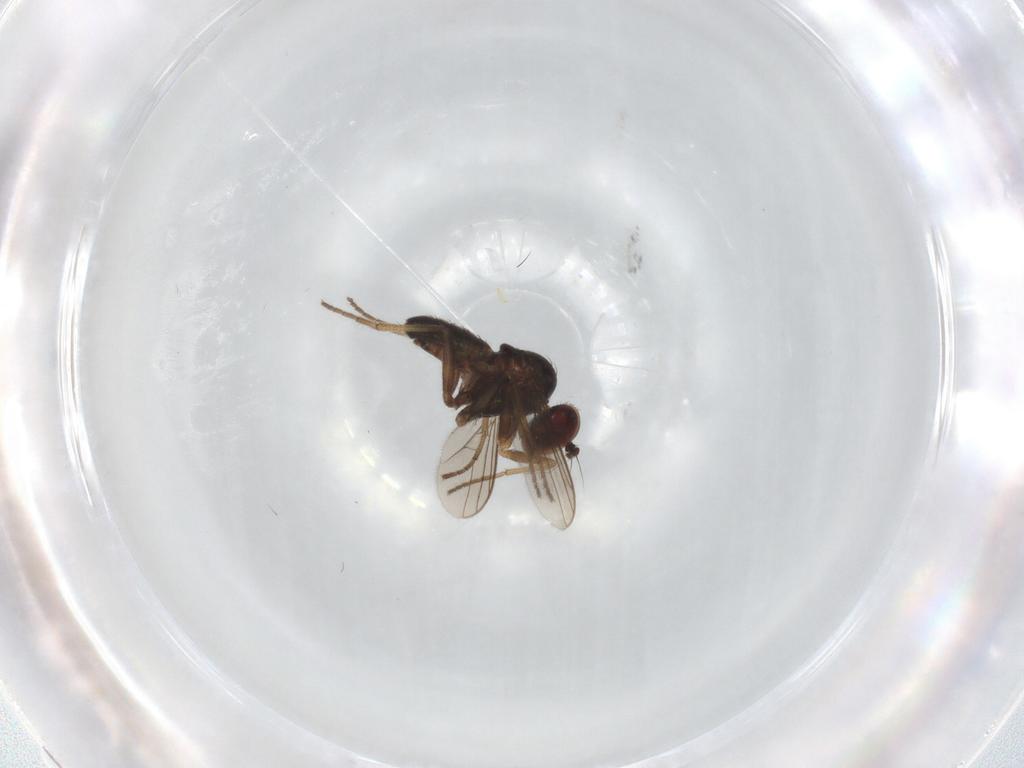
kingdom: Animalia
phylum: Arthropoda
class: Insecta
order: Diptera
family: Dolichopodidae
